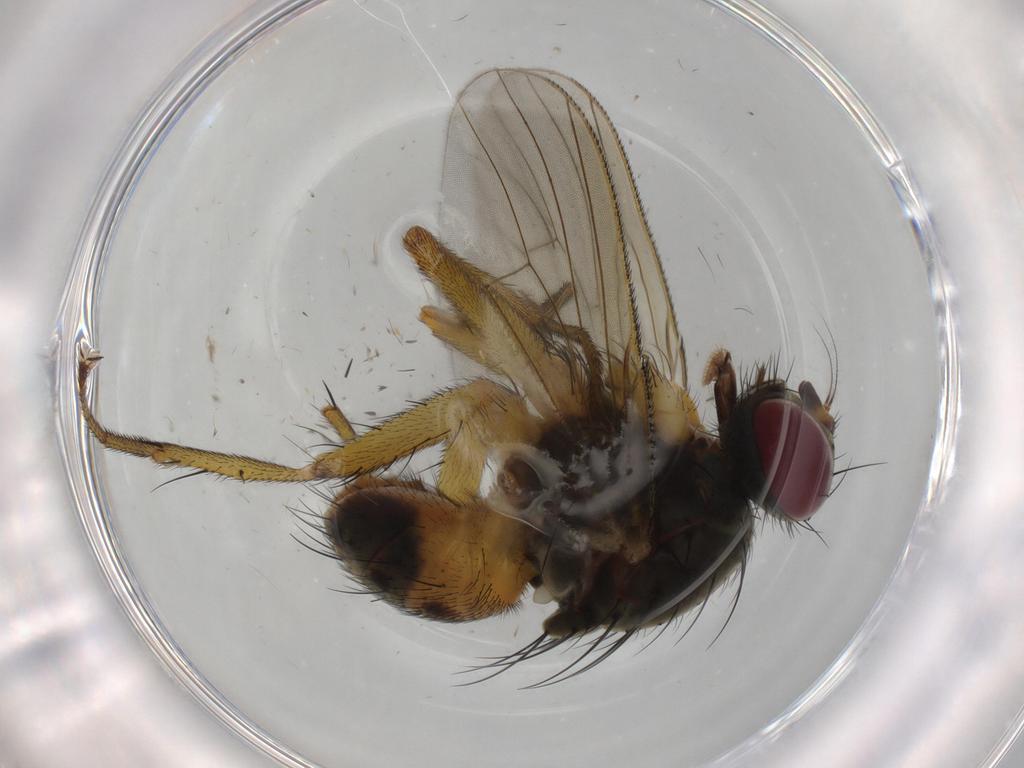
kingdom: Animalia
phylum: Arthropoda
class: Insecta
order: Diptera
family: Muscidae
